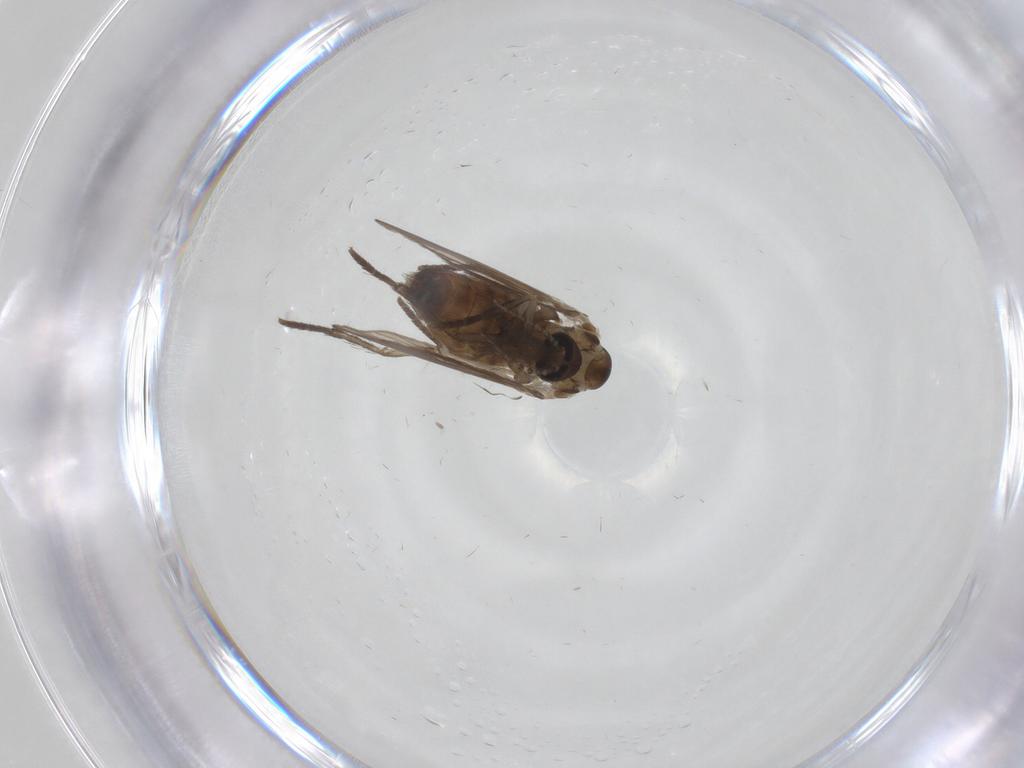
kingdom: Animalia
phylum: Arthropoda
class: Insecta
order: Diptera
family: Psychodidae
